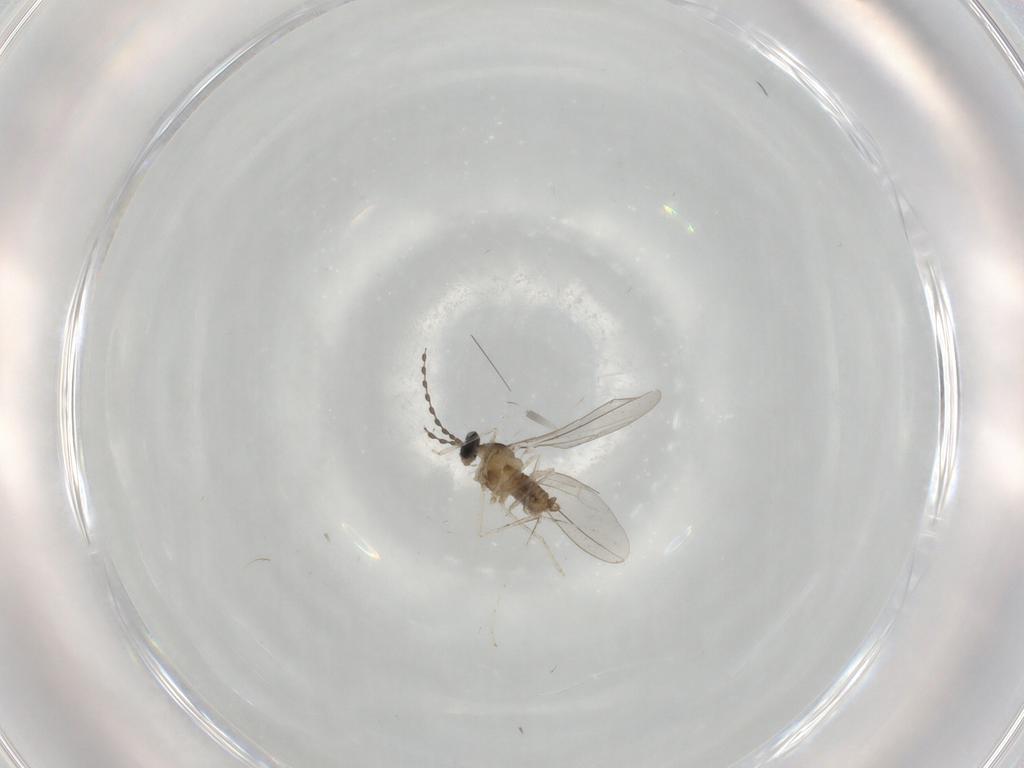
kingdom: Animalia
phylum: Arthropoda
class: Insecta
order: Diptera
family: Cecidomyiidae
